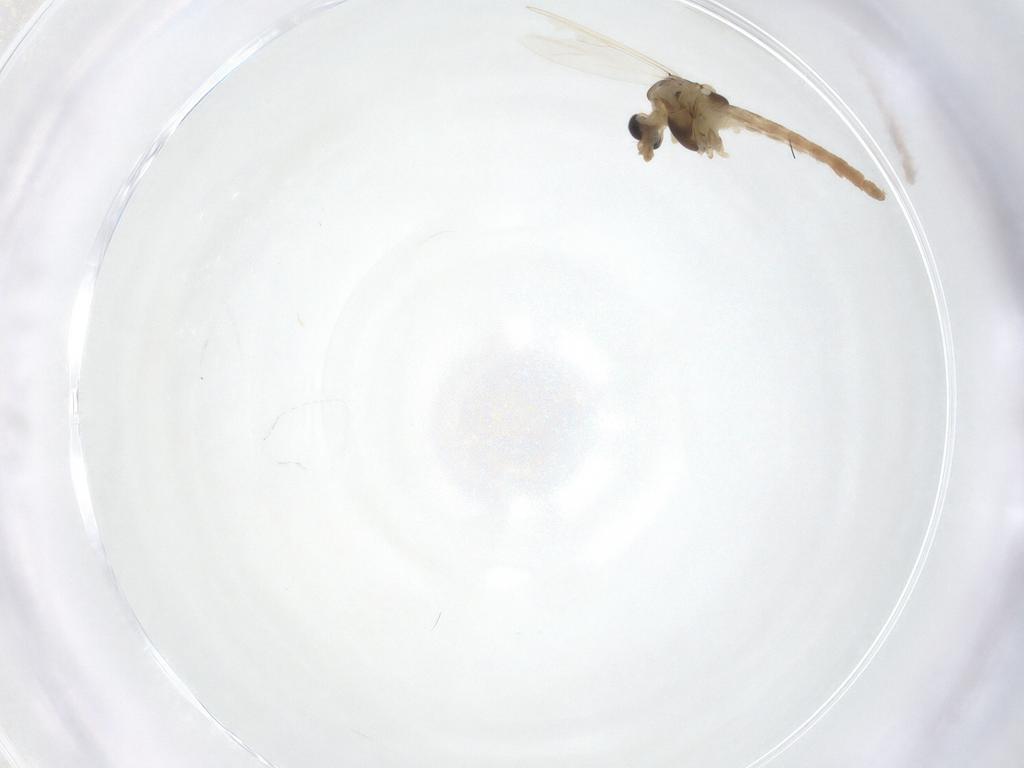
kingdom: Animalia
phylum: Arthropoda
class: Insecta
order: Diptera
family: Chironomidae
